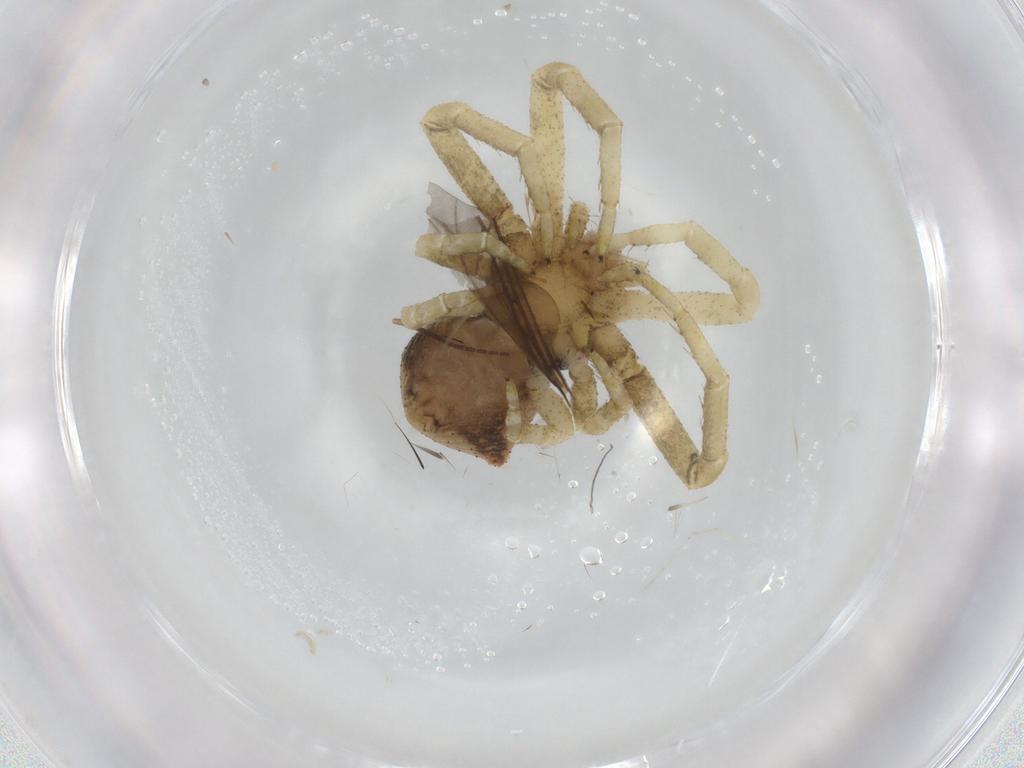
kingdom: Animalia
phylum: Arthropoda
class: Arachnida
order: Araneae
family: Thomisidae
